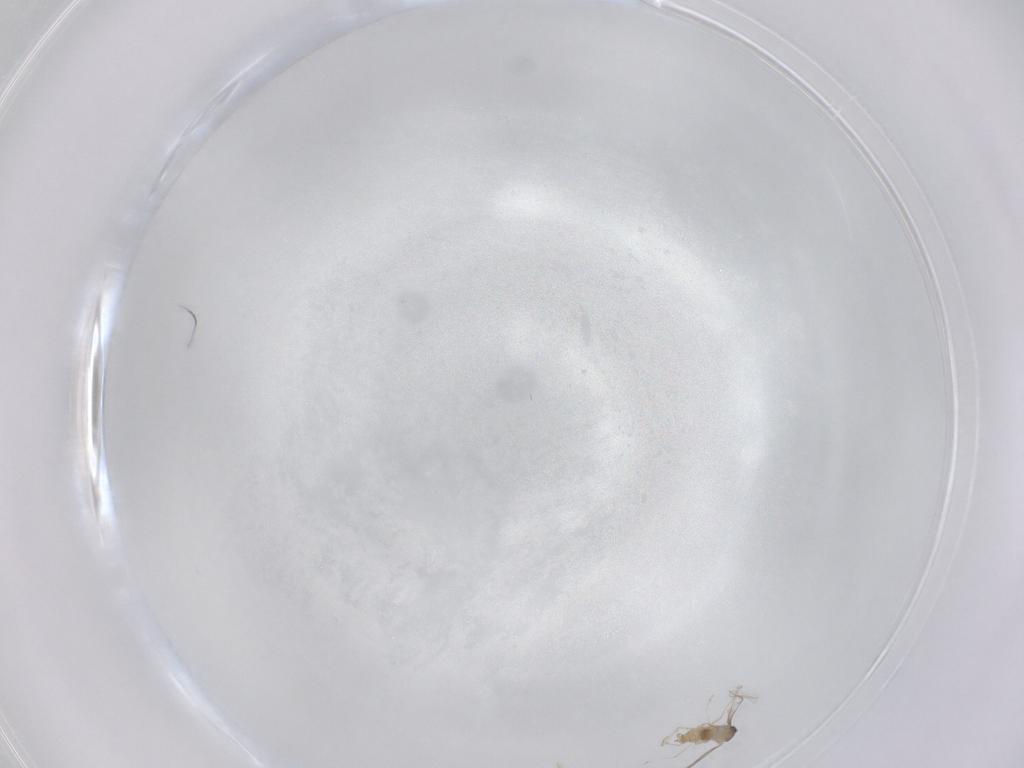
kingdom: Animalia
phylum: Arthropoda
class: Insecta
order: Diptera
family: Cecidomyiidae
